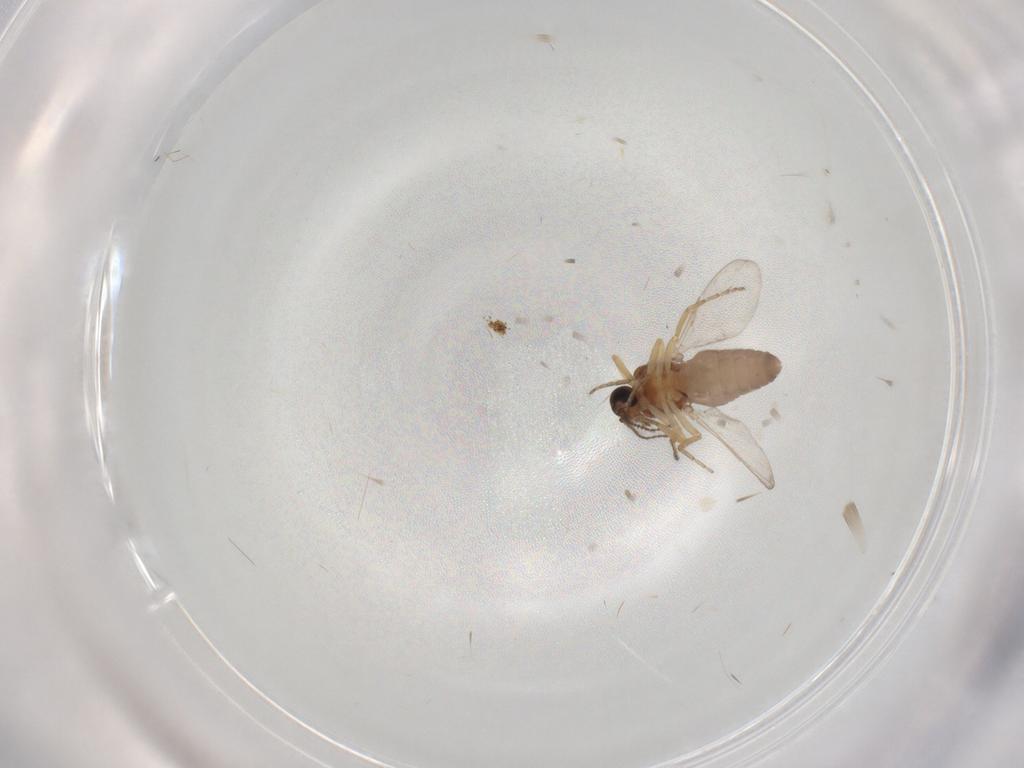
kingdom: Animalia
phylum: Arthropoda
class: Insecta
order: Diptera
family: Ceratopogonidae
